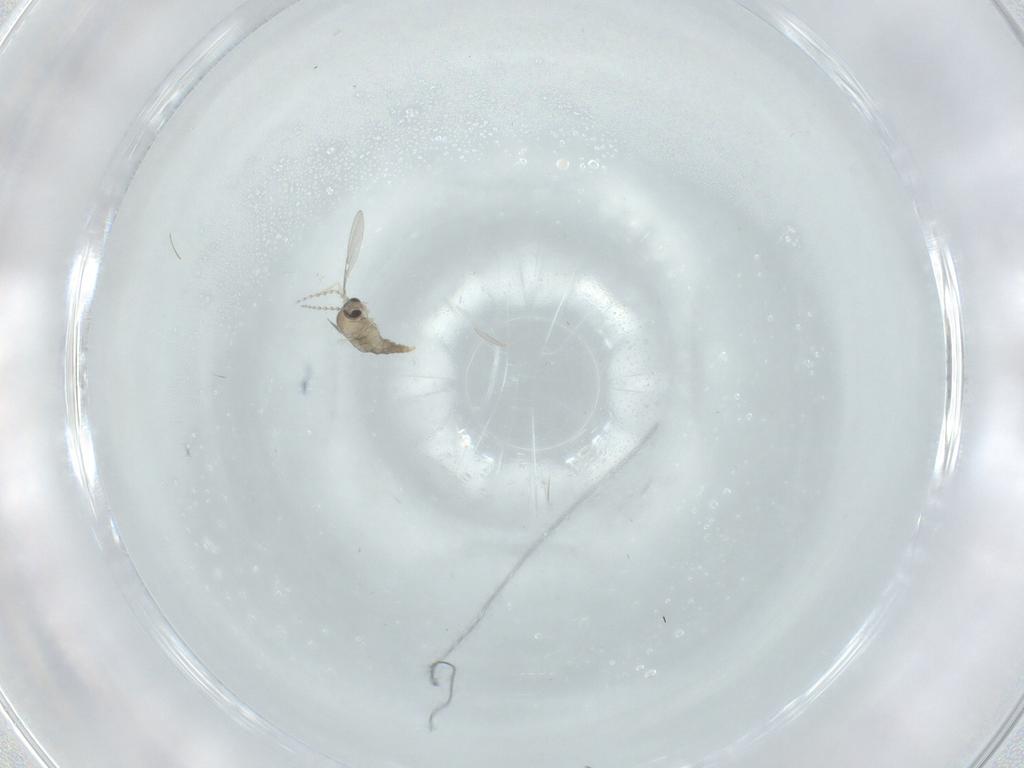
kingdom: Animalia
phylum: Arthropoda
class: Insecta
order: Diptera
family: Cecidomyiidae
